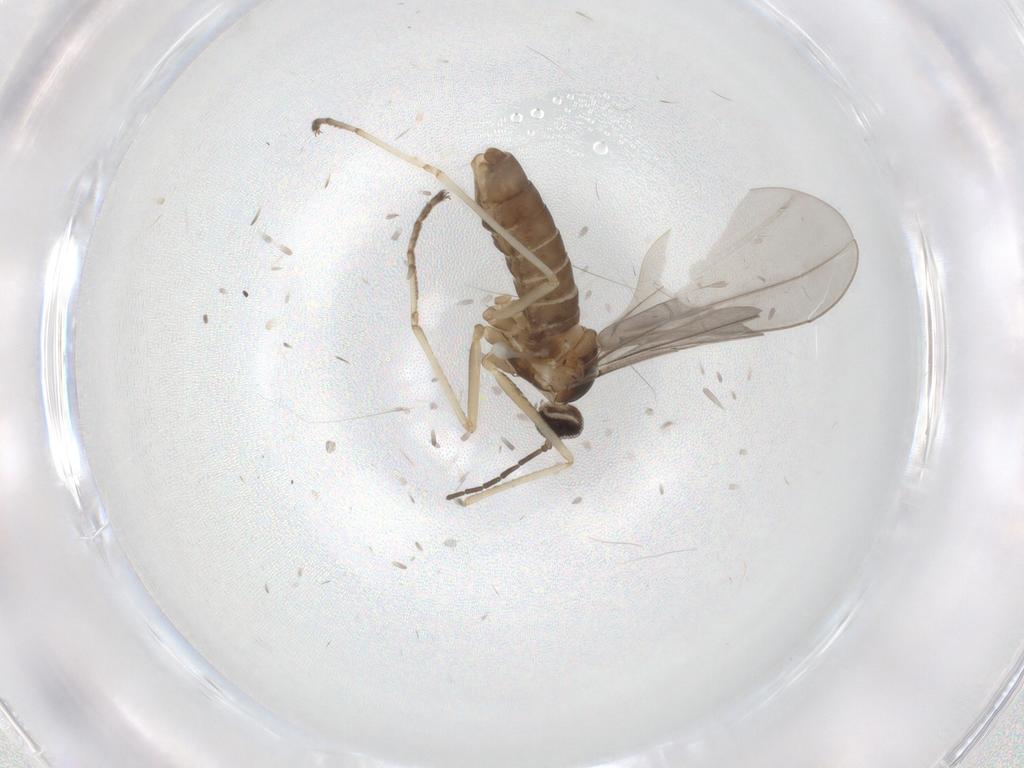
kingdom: Animalia
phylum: Arthropoda
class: Insecta
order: Diptera
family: Cecidomyiidae
